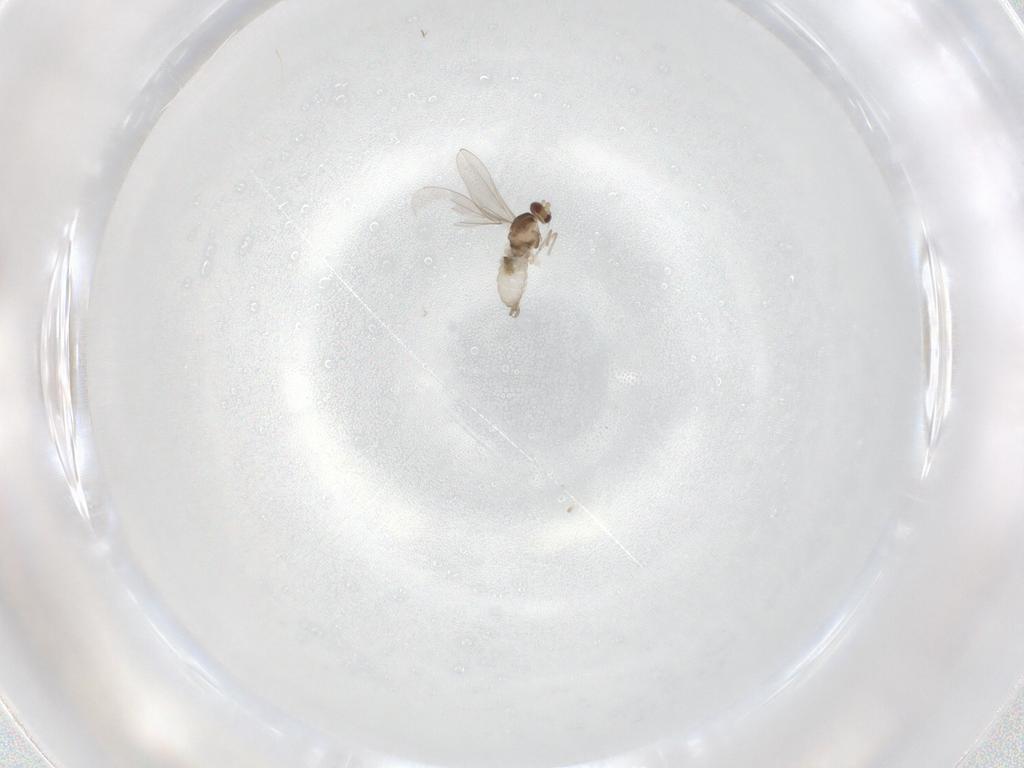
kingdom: Animalia
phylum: Arthropoda
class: Insecta
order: Diptera
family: Cecidomyiidae
